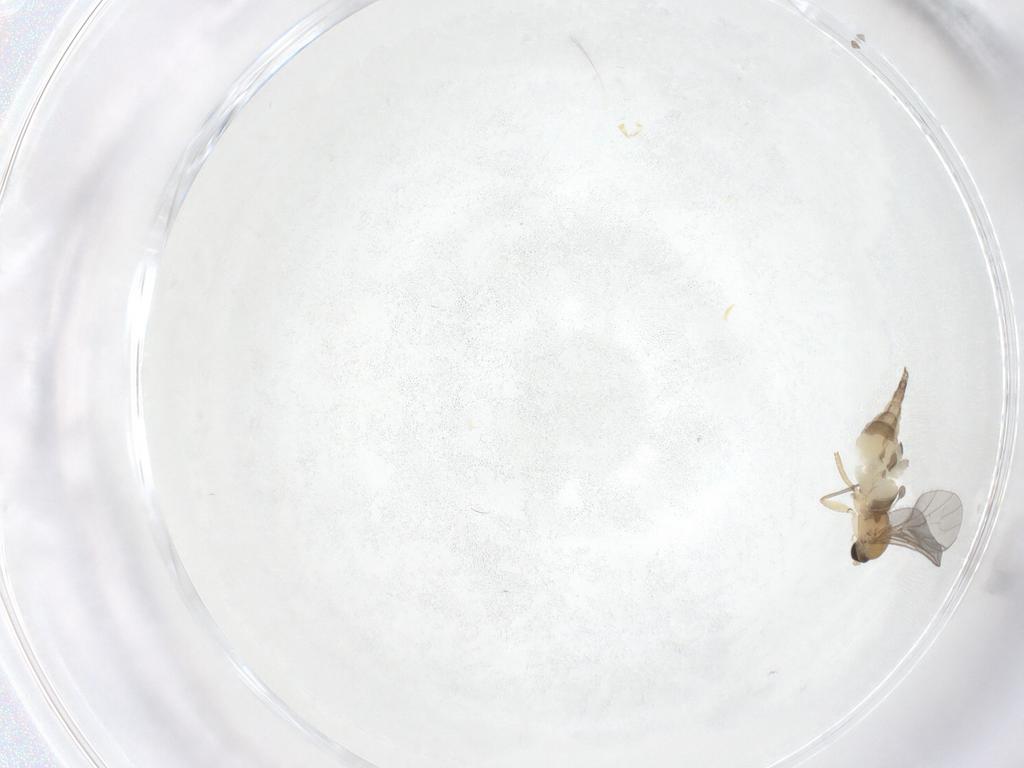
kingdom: Animalia
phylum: Arthropoda
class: Insecta
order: Diptera
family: Sciaridae
